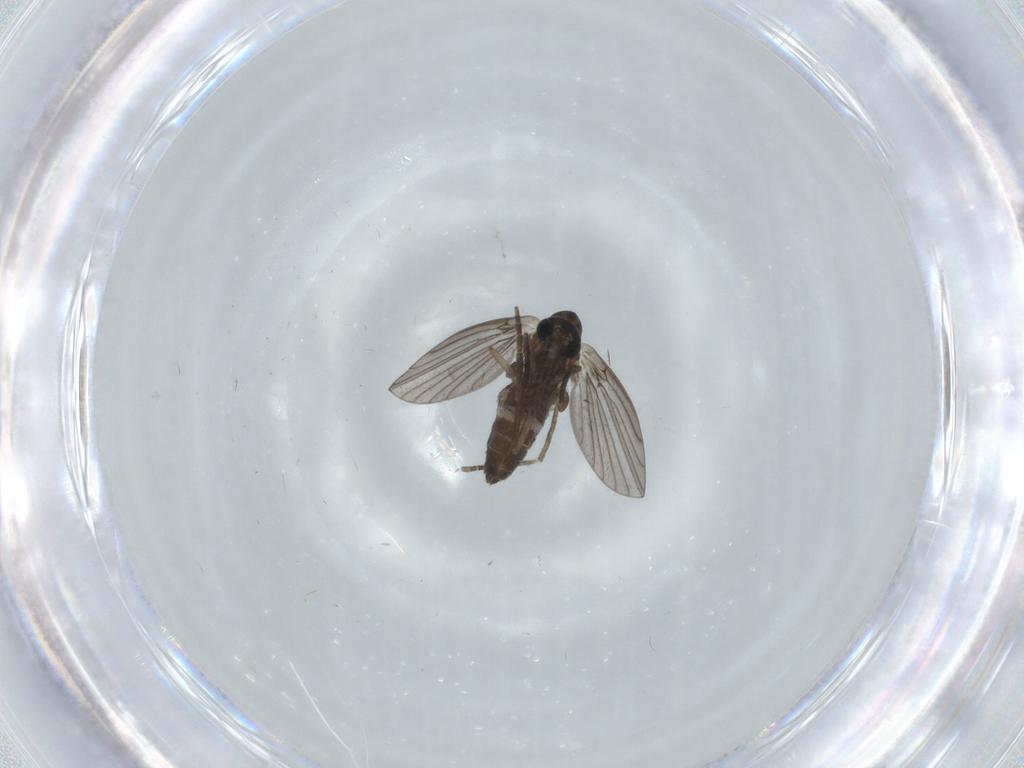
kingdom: Animalia
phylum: Arthropoda
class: Insecta
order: Diptera
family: Sciaridae
